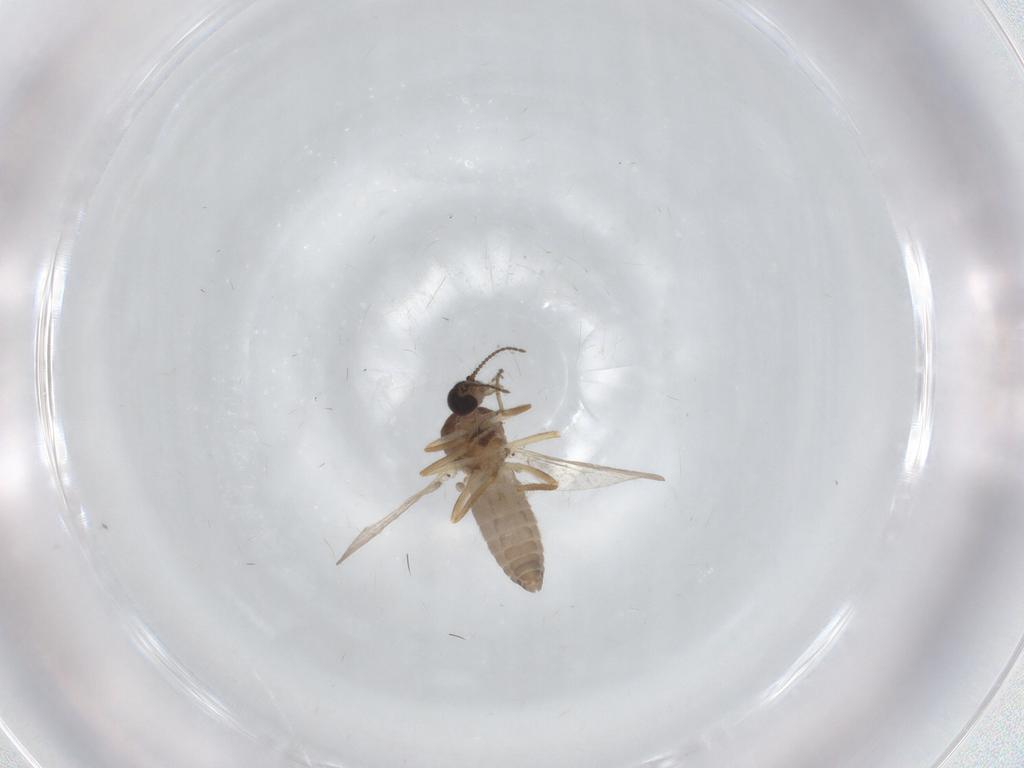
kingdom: Animalia
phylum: Arthropoda
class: Insecta
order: Diptera
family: Ceratopogonidae
